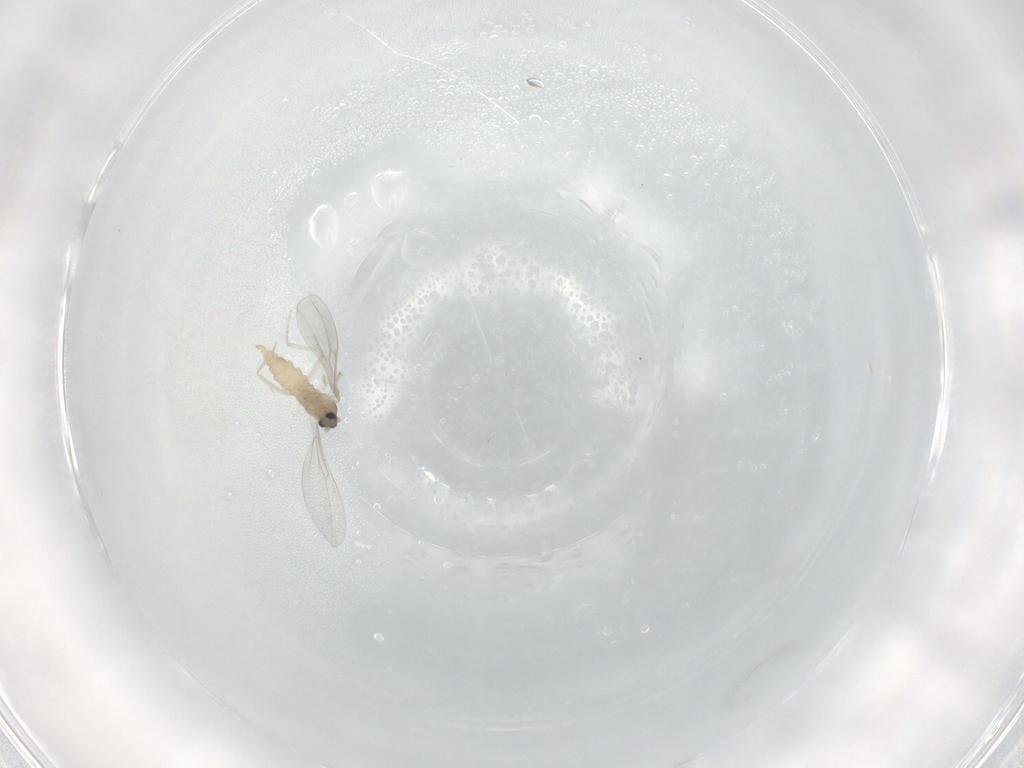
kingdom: Animalia
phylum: Arthropoda
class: Insecta
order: Diptera
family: Cecidomyiidae
